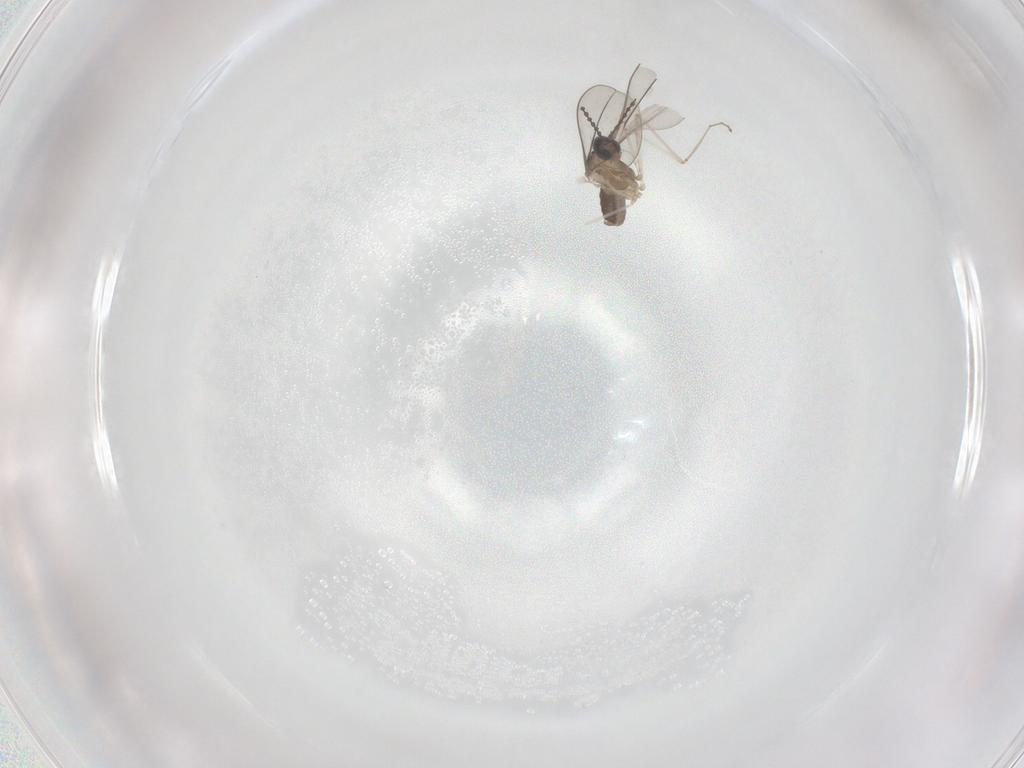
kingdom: Animalia
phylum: Arthropoda
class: Insecta
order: Diptera
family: Cecidomyiidae
